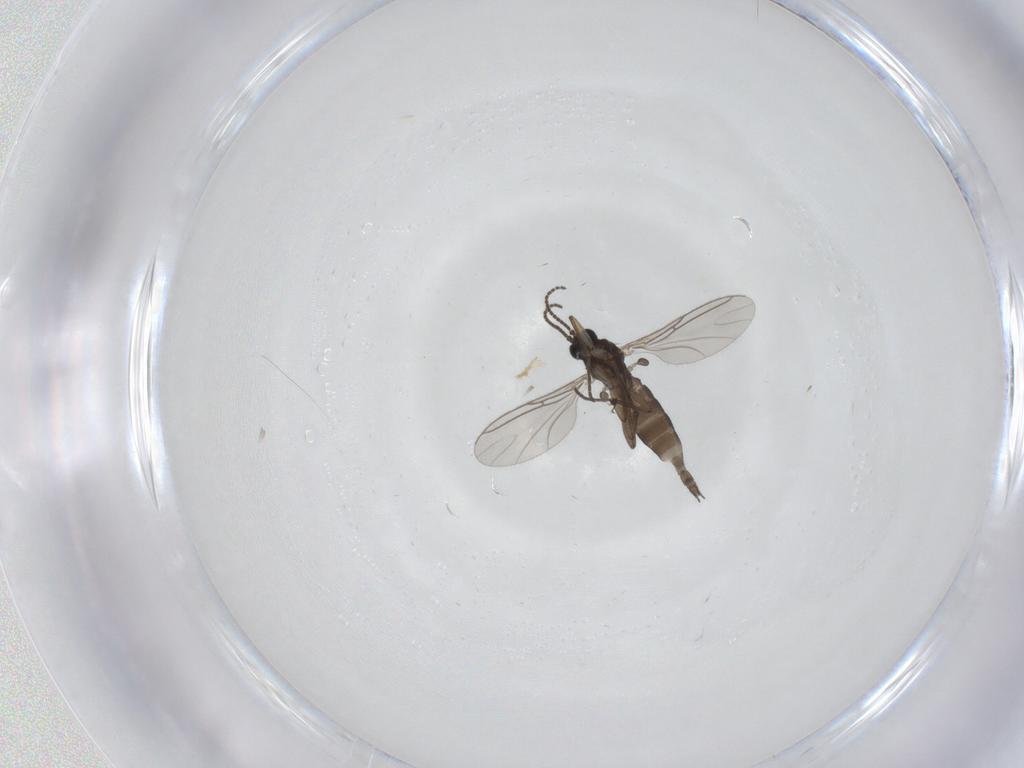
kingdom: Animalia
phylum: Arthropoda
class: Insecta
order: Diptera
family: Sciaridae
